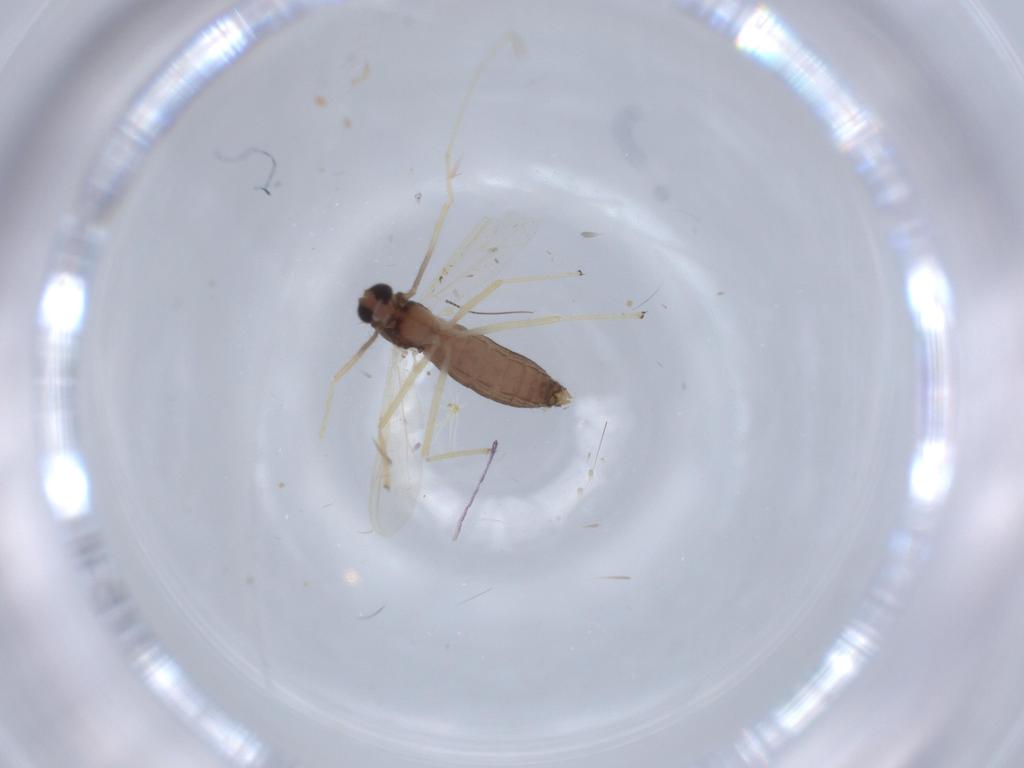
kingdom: Animalia
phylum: Arthropoda
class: Insecta
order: Diptera
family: Chironomidae
